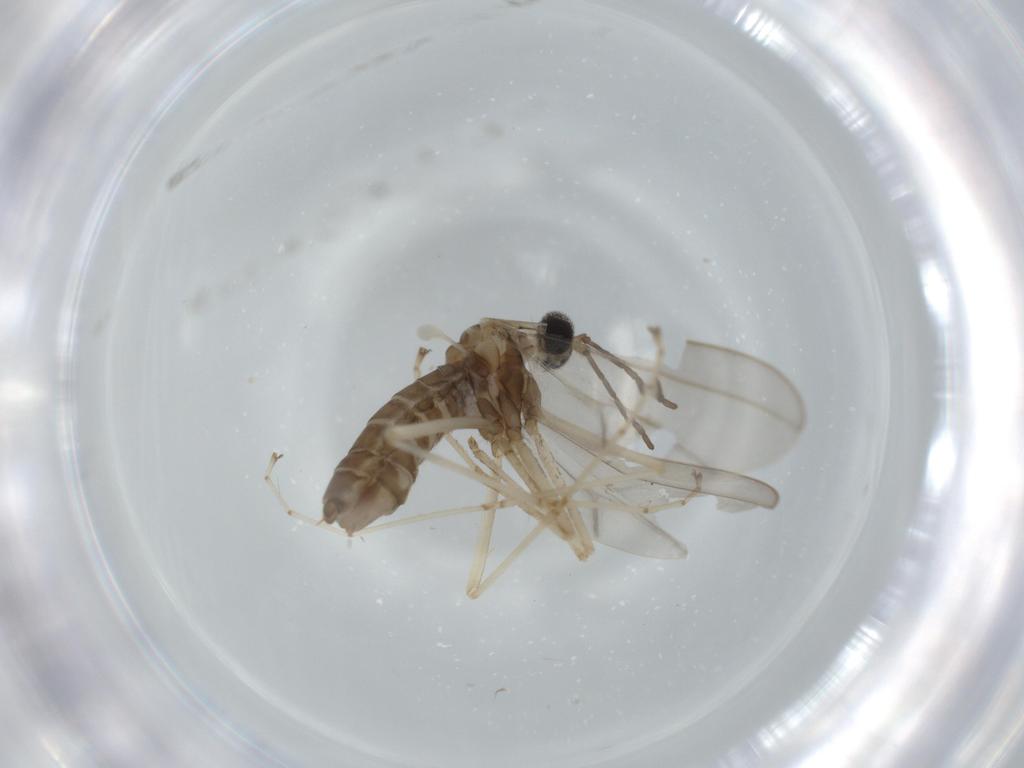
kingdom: Animalia
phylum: Arthropoda
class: Insecta
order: Diptera
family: Cecidomyiidae
